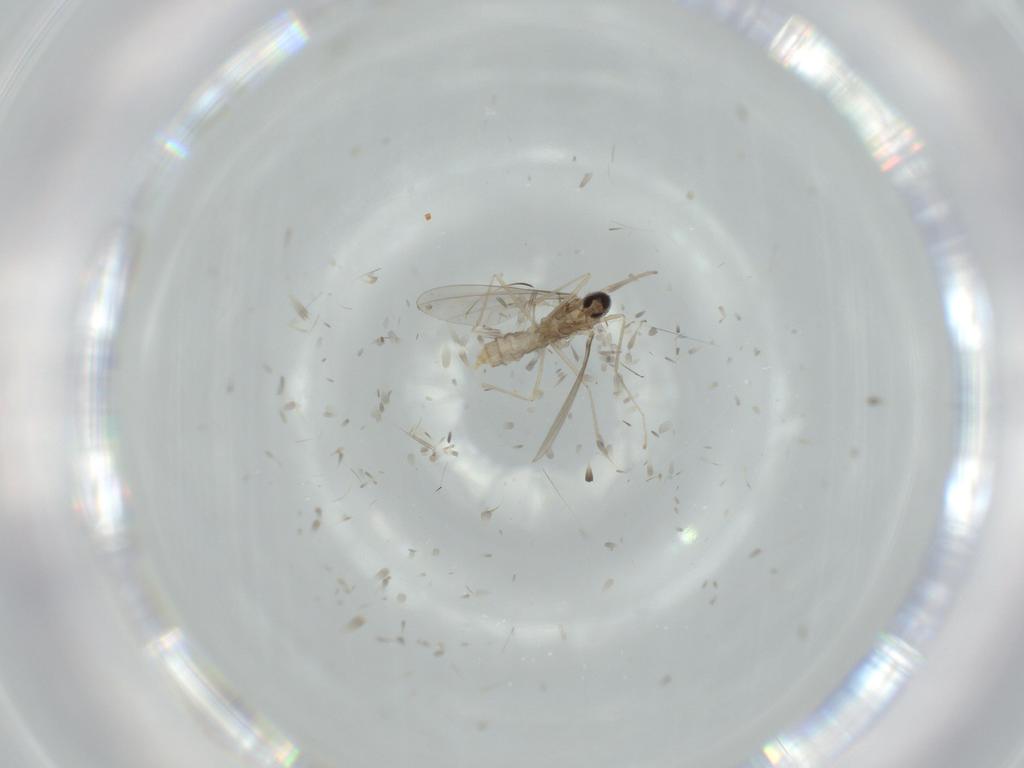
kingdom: Animalia
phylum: Arthropoda
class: Insecta
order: Diptera
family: Cecidomyiidae
